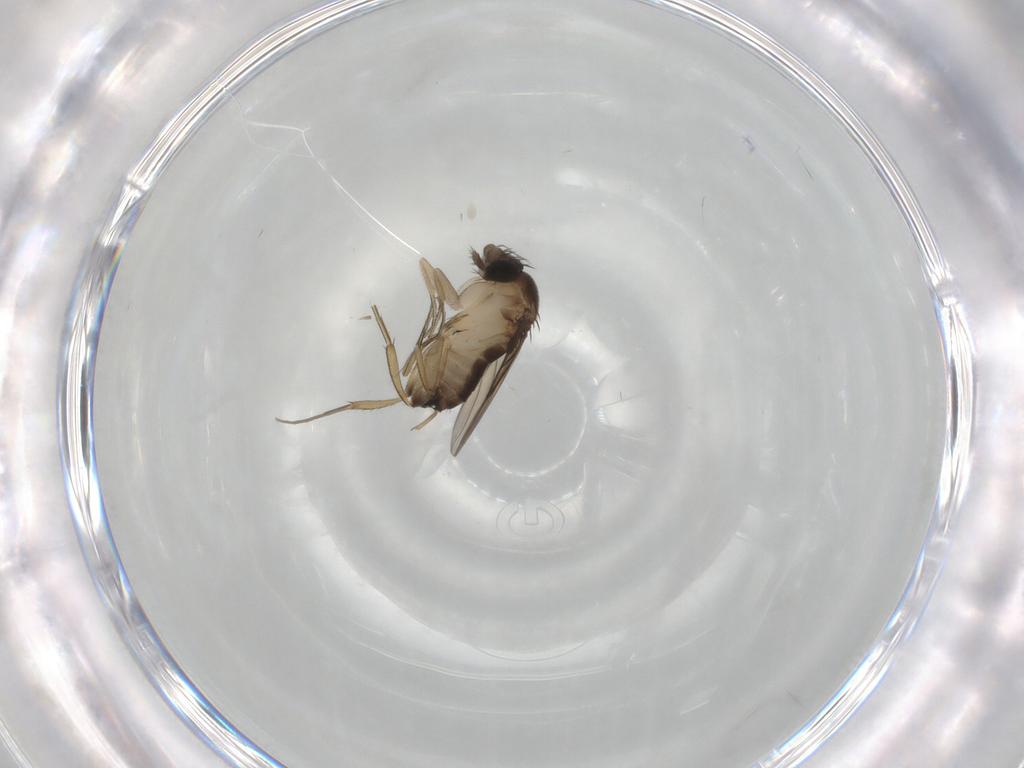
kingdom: Animalia
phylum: Arthropoda
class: Insecta
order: Diptera
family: Phoridae
